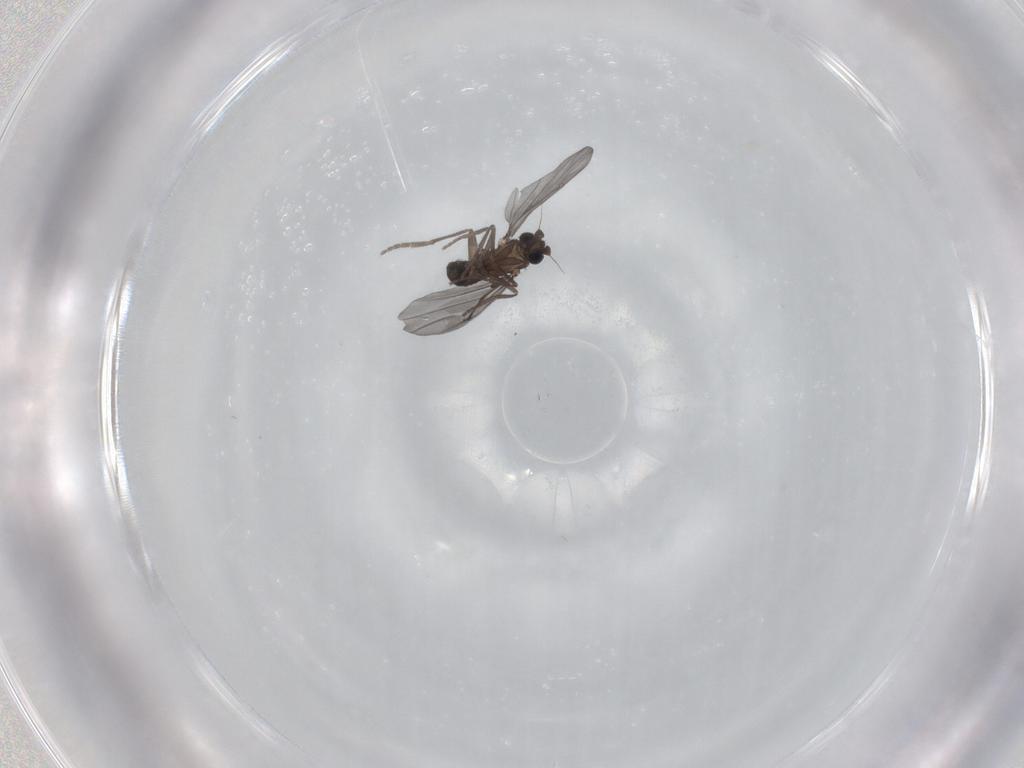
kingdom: Animalia
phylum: Arthropoda
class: Insecta
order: Diptera
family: Phoridae
